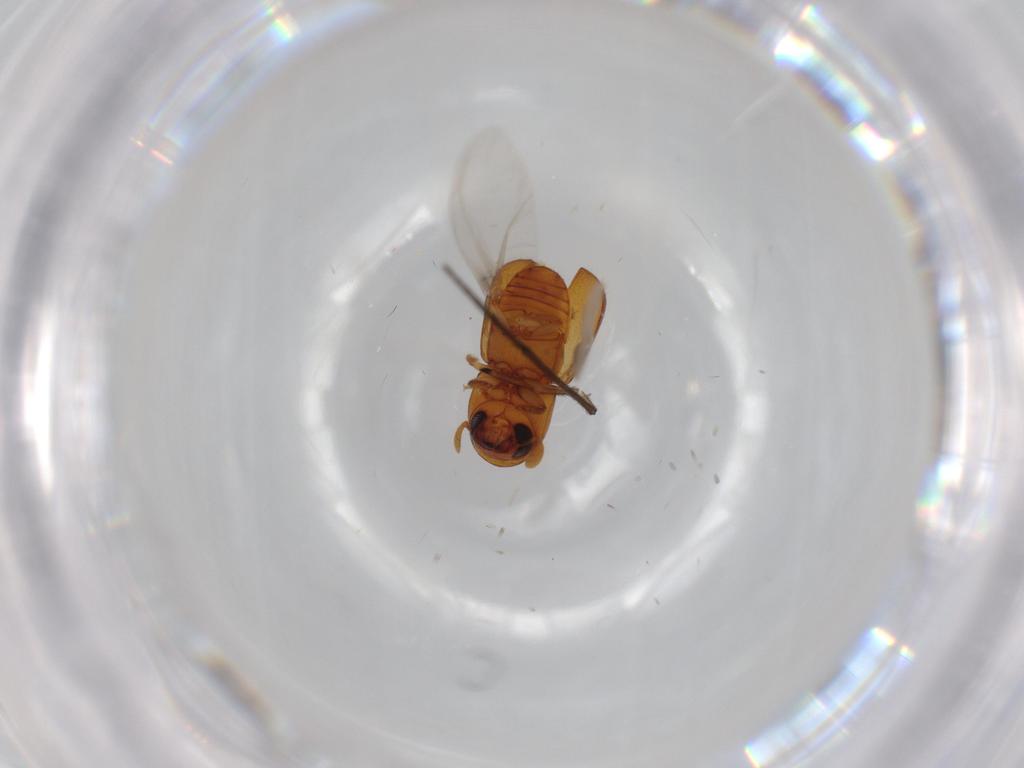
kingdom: Animalia
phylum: Arthropoda
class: Insecta
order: Coleoptera
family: Curculionidae
